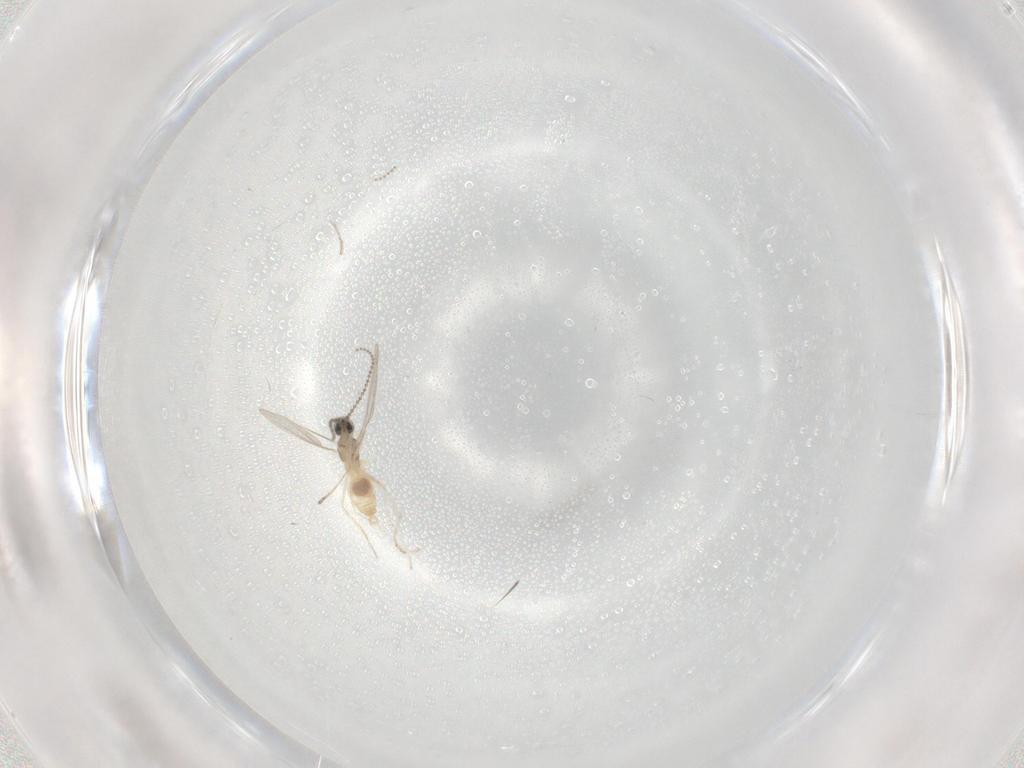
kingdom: Animalia
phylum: Arthropoda
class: Insecta
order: Diptera
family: Cecidomyiidae
